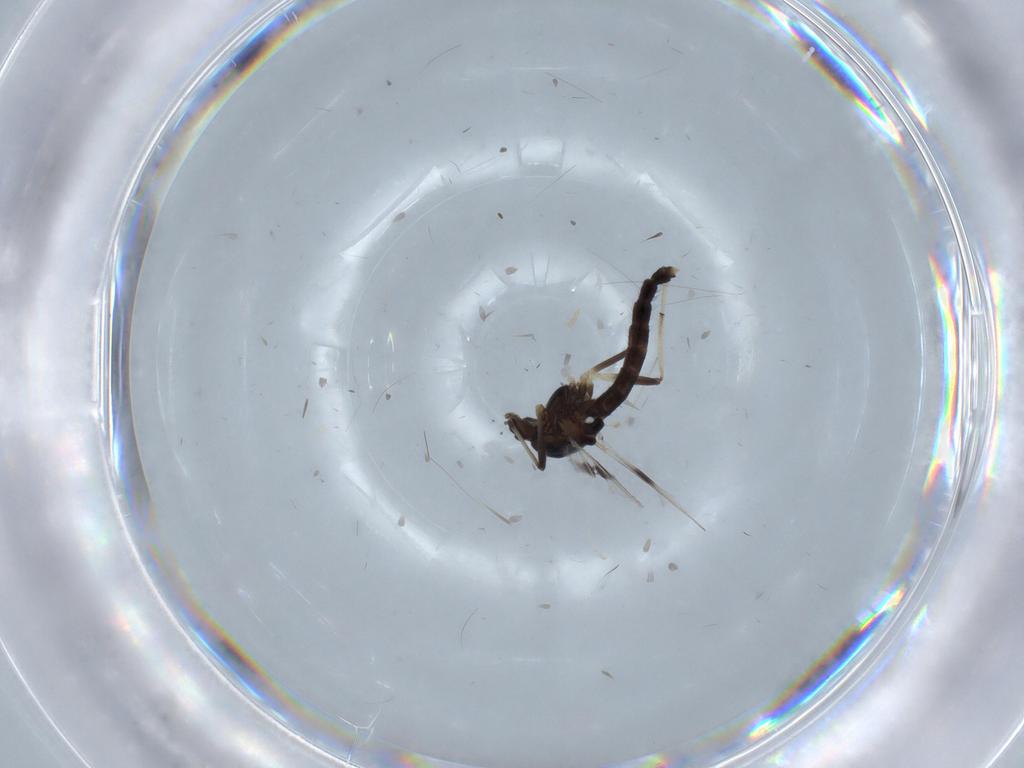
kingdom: Animalia
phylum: Arthropoda
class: Insecta
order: Diptera
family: Chironomidae
